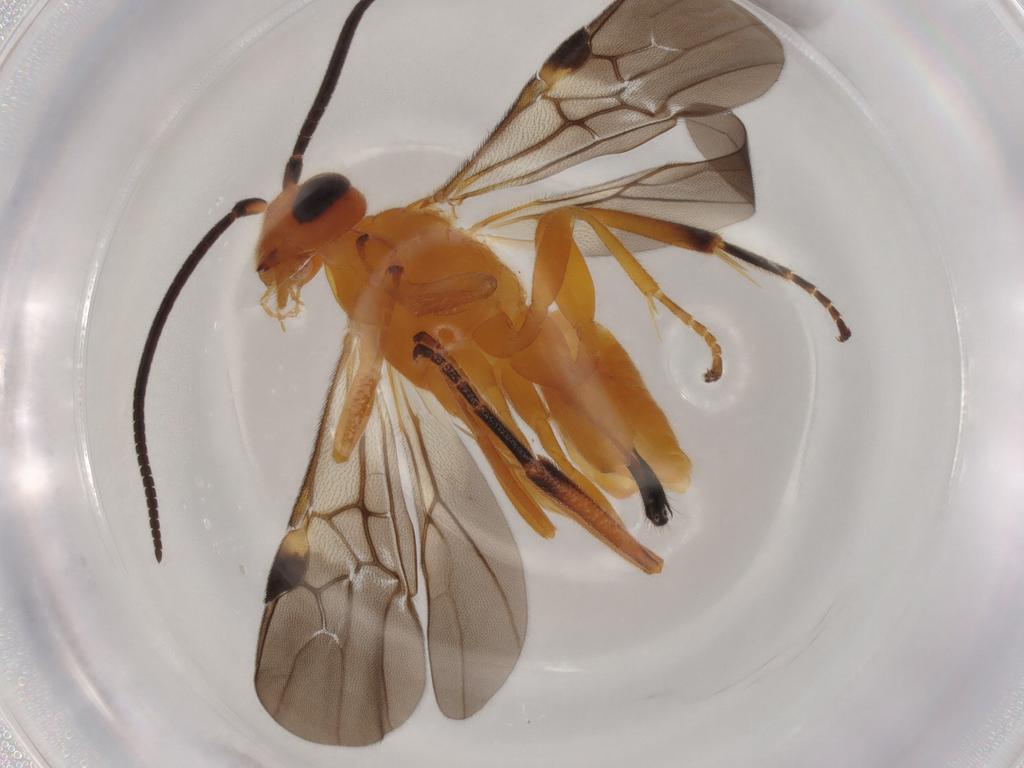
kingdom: Animalia
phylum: Arthropoda
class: Insecta
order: Hymenoptera
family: Braconidae
